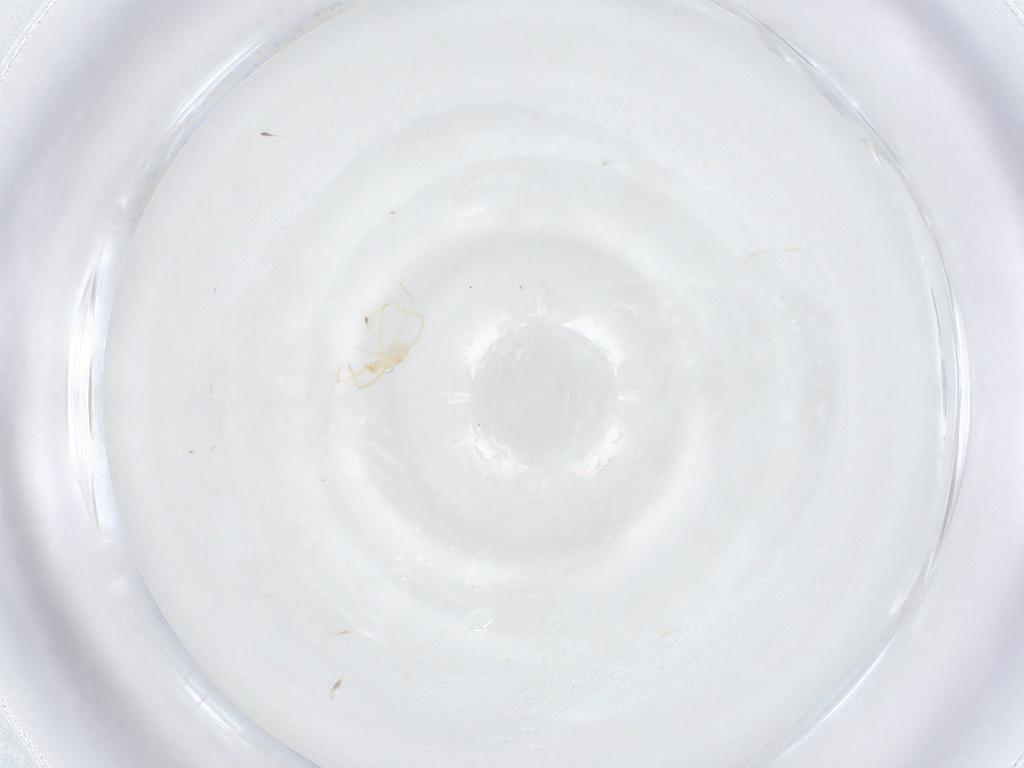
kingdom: Animalia
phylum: Arthropoda
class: Arachnida
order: Trombidiformes
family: Erythraeidae
